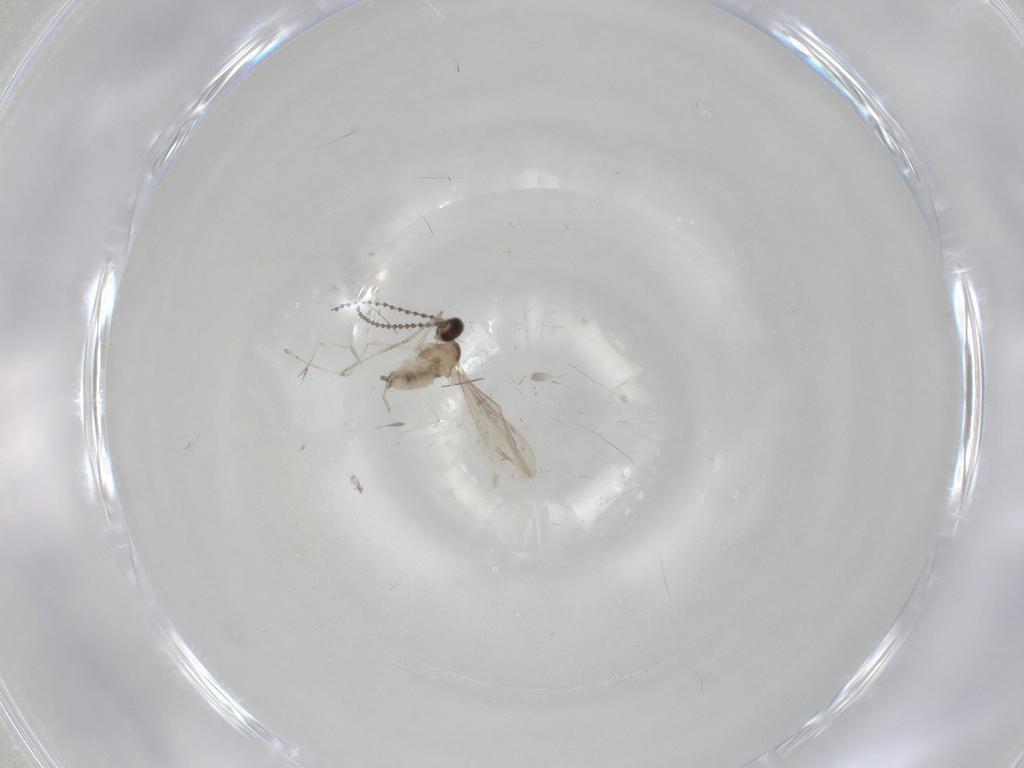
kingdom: Animalia
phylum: Arthropoda
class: Insecta
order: Diptera
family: Cecidomyiidae
